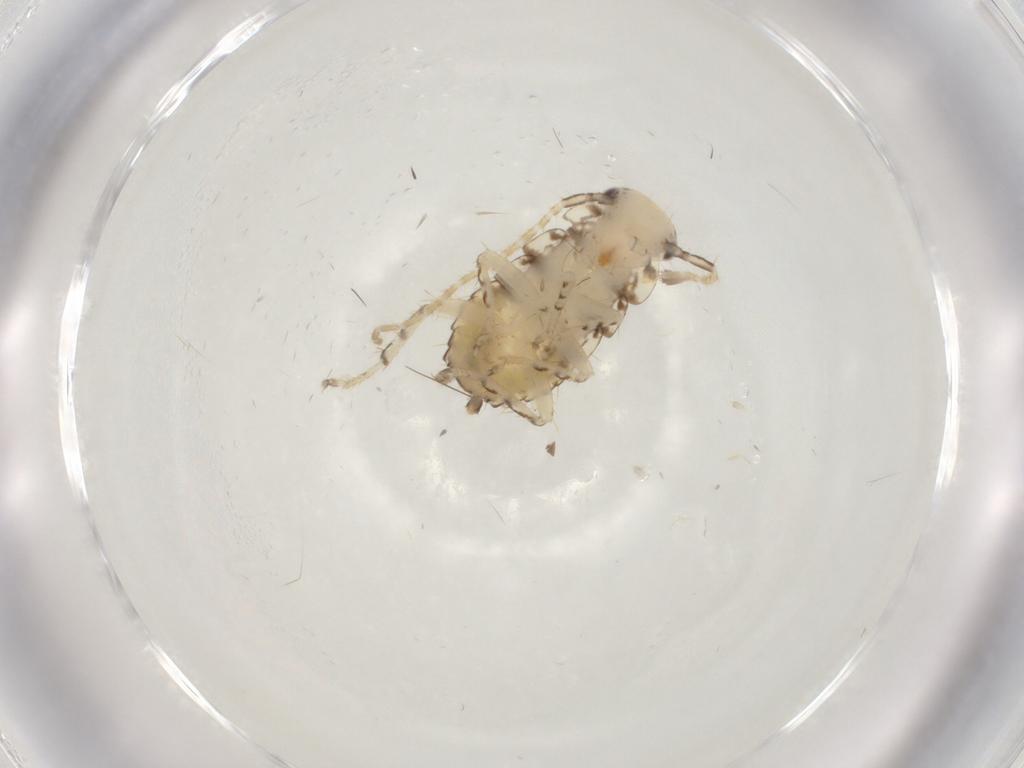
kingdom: Animalia
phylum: Arthropoda
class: Insecta
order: Blattodea
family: Ectobiidae
